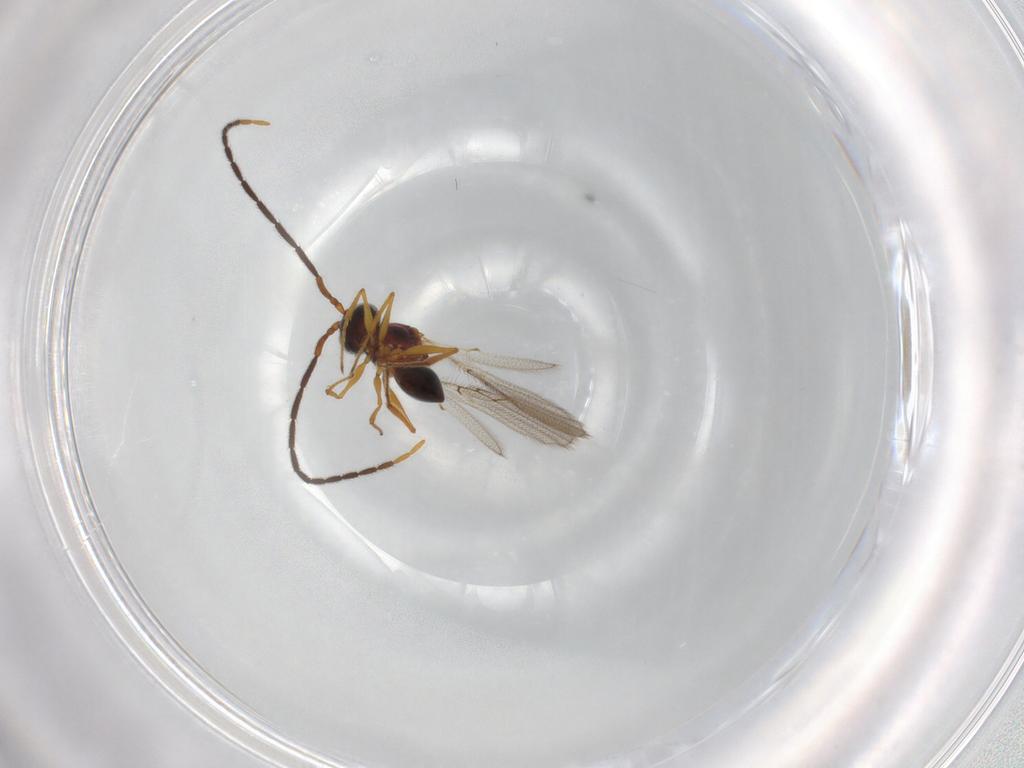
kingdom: Animalia
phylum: Arthropoda
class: Insecta
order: Hymenoptera
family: Figitidae
